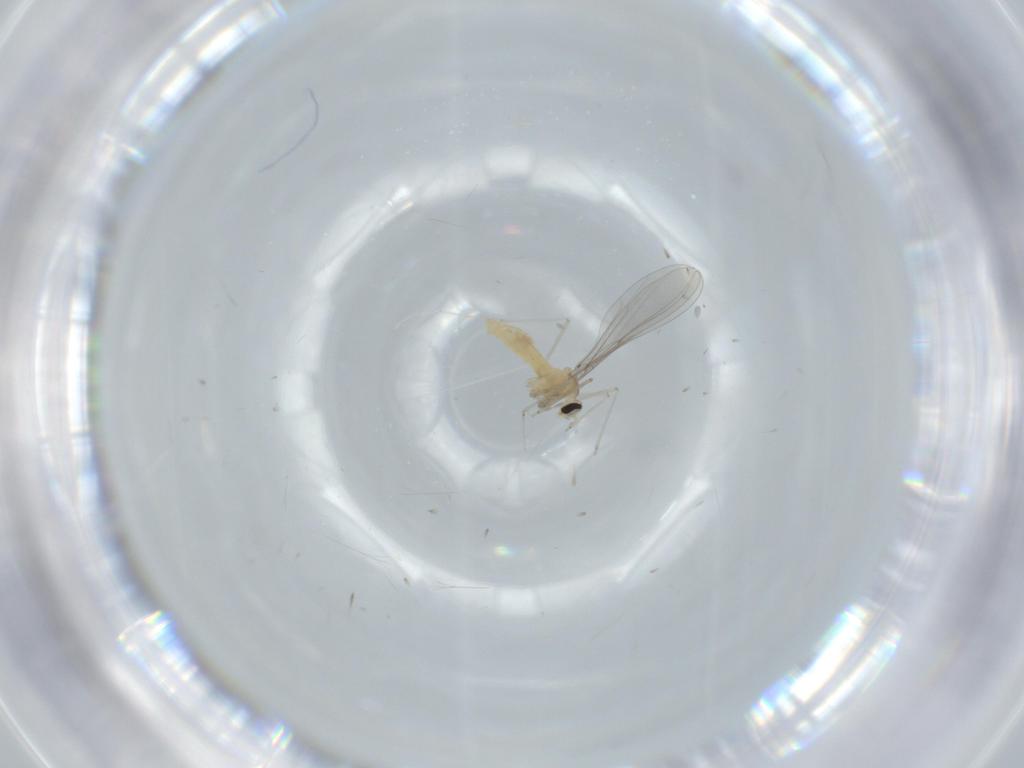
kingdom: Animalia
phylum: Arthropoda
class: Insecta
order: Diptera
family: Cecidomyiidae
